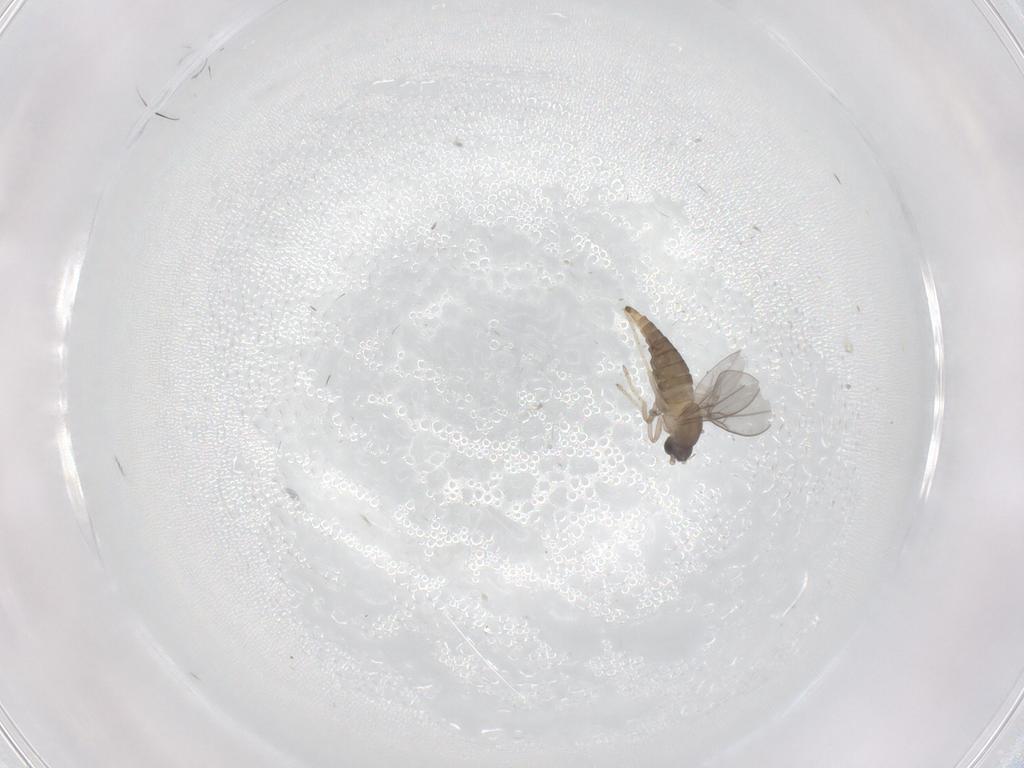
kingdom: Animalia
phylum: Arthropoda
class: Insecta
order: Diptera
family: Cecidomyiidae
